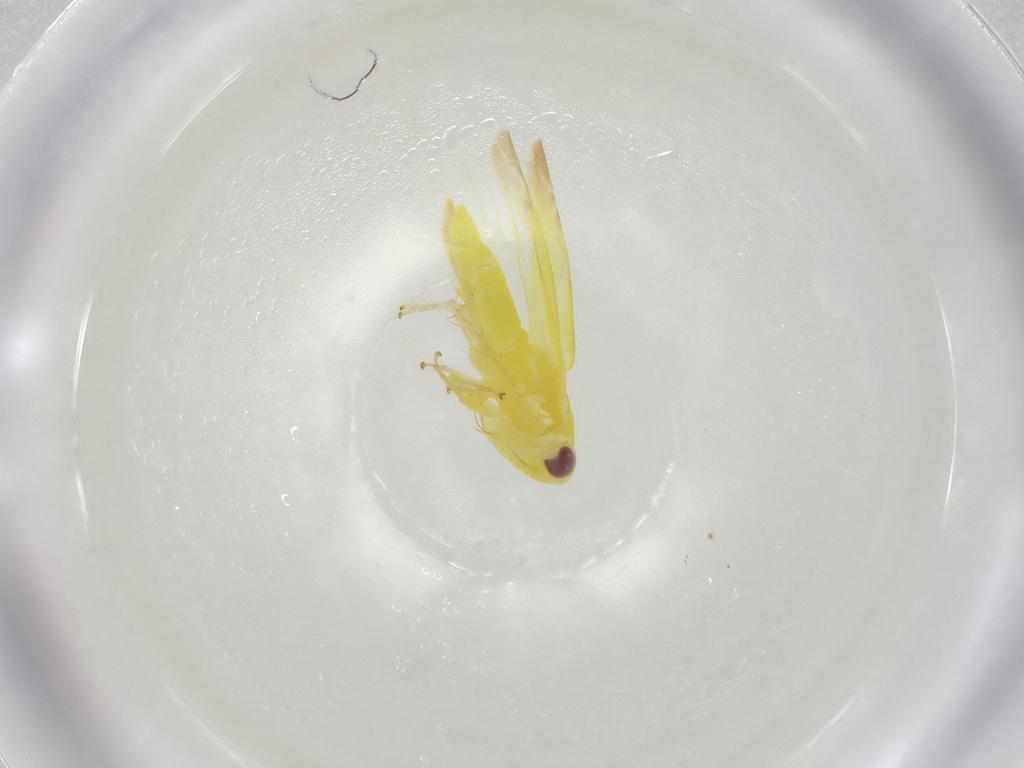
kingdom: Animalia
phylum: Arthropoda
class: Insecta
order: Hemiptera
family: Cicadellidae
